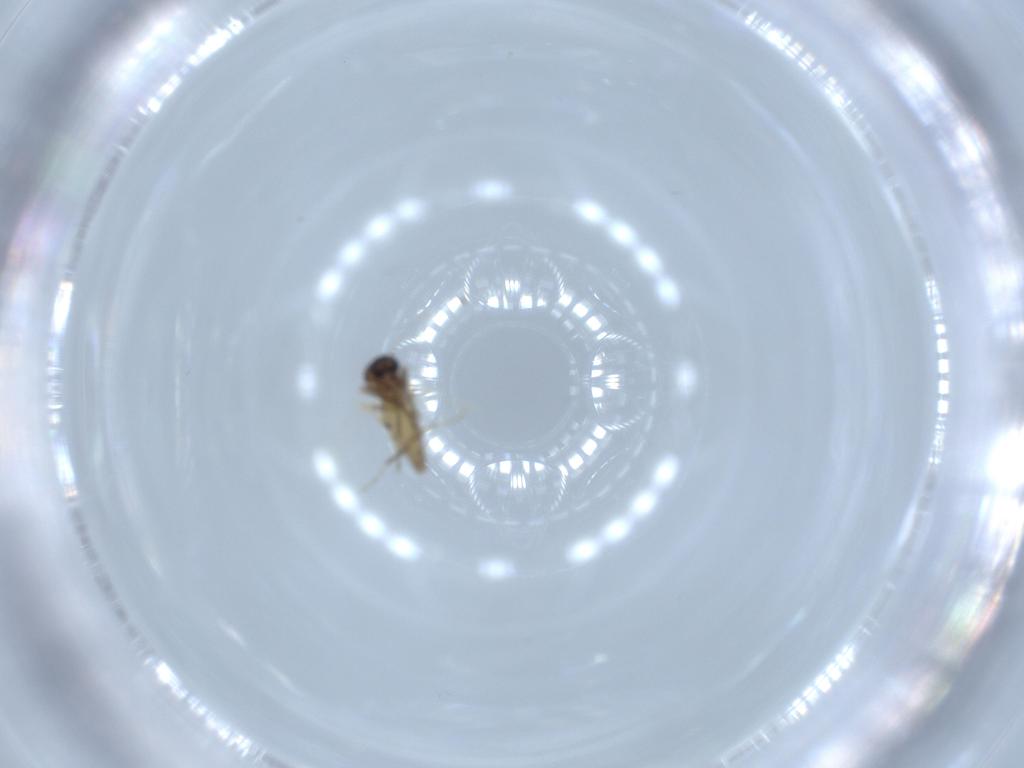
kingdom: Animalia
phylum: Arthropoda
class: Insecta
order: Diptera
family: Ceratopogonidae
